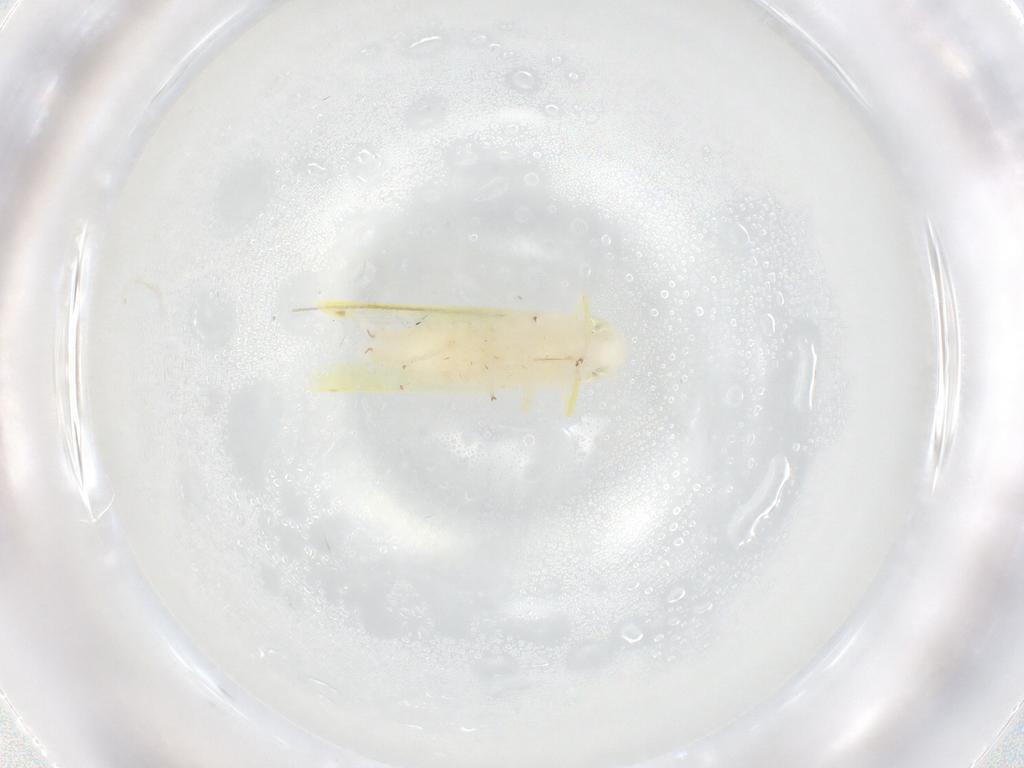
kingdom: Animalia
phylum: Arthropoda
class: Insecta
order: Hemiptera
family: Cicadellidae
